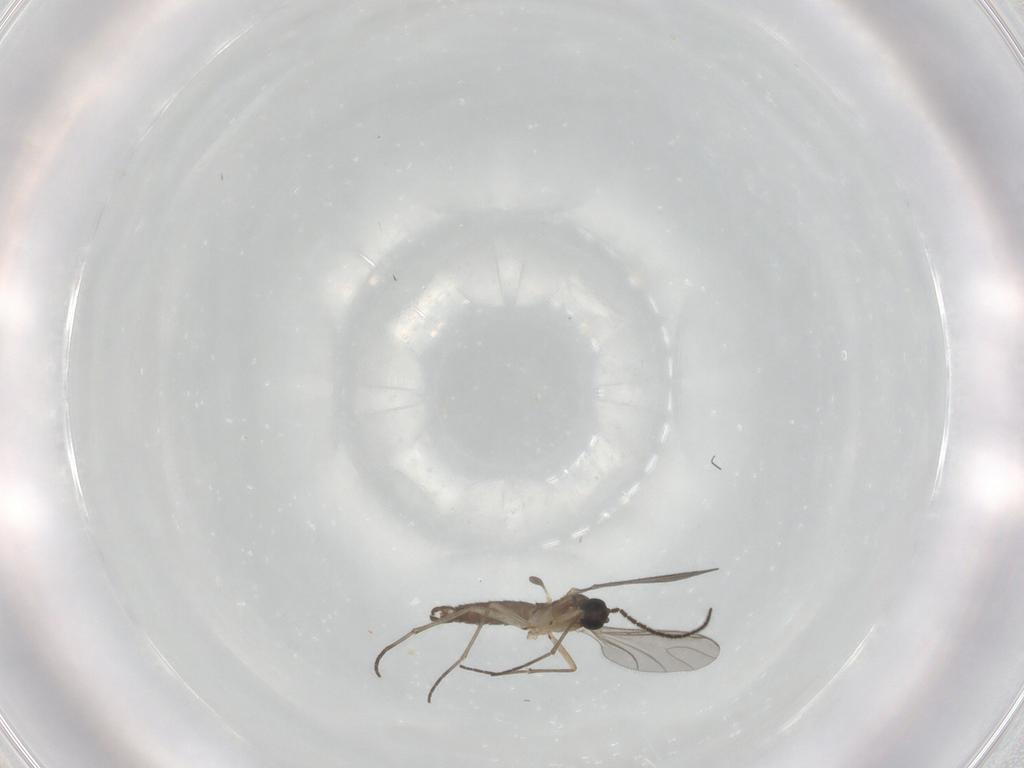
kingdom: Animalia
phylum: Arthropoda
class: Insecta
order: Diptera
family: Sciaridae
